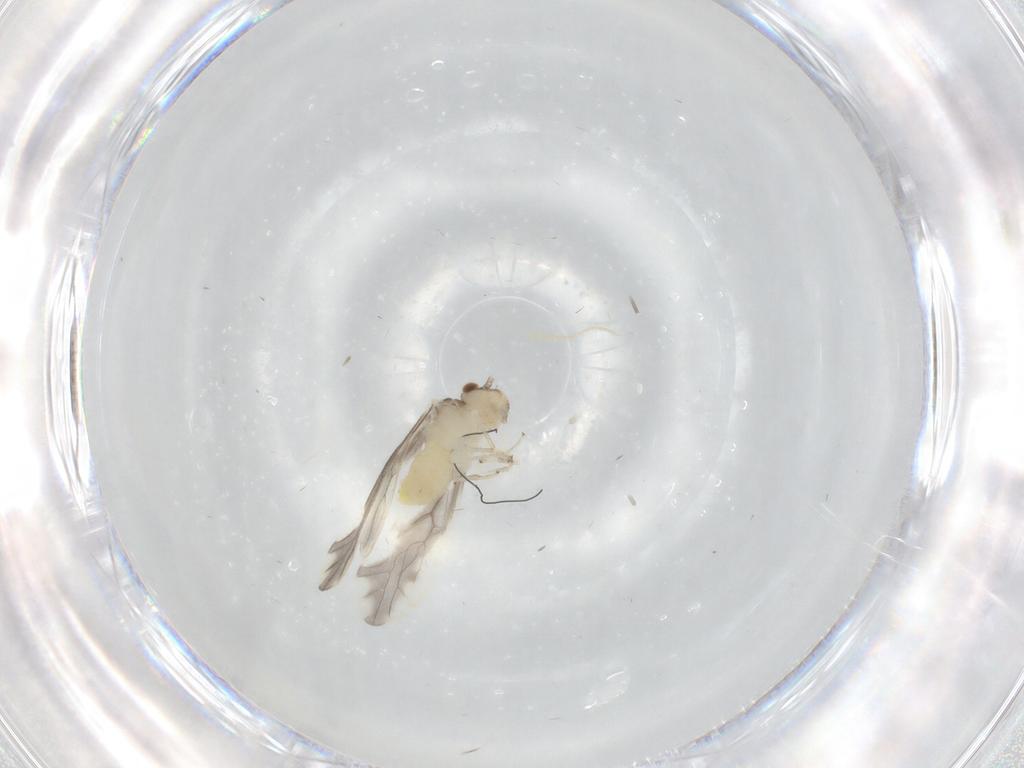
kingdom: Animalia
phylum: Arthropoda
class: Insecta
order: Psocodea
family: Caeciliusidae
